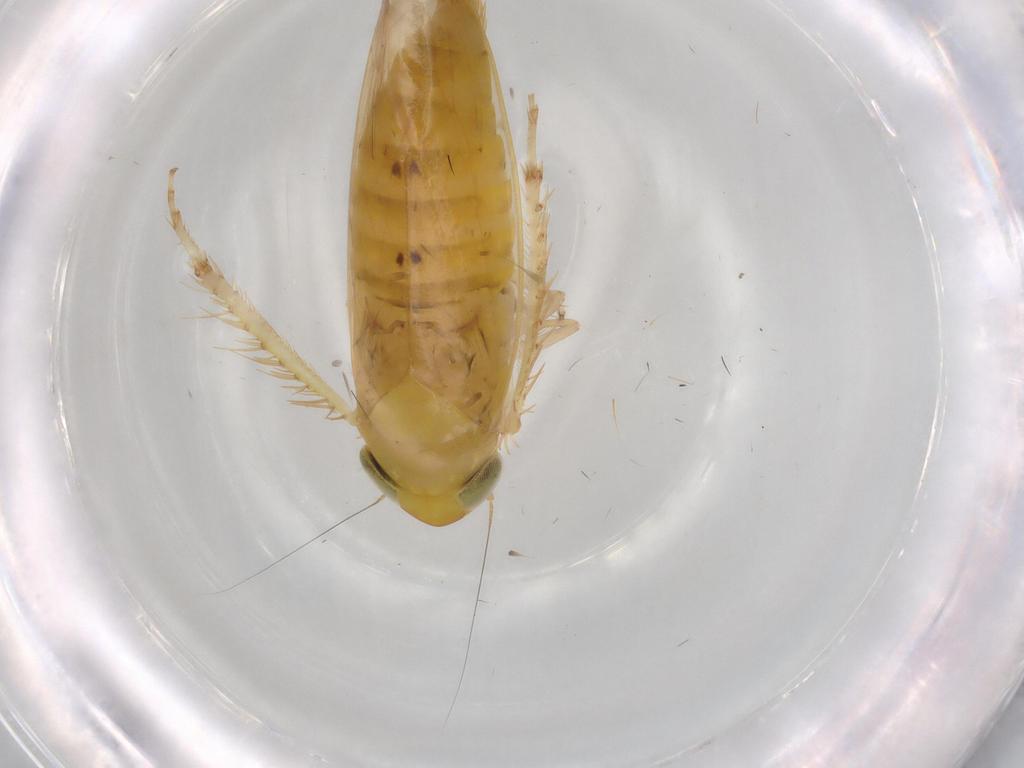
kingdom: Animalia
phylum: Arthropoda
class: Insecta
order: Hemiptera
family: Cicadellidae
